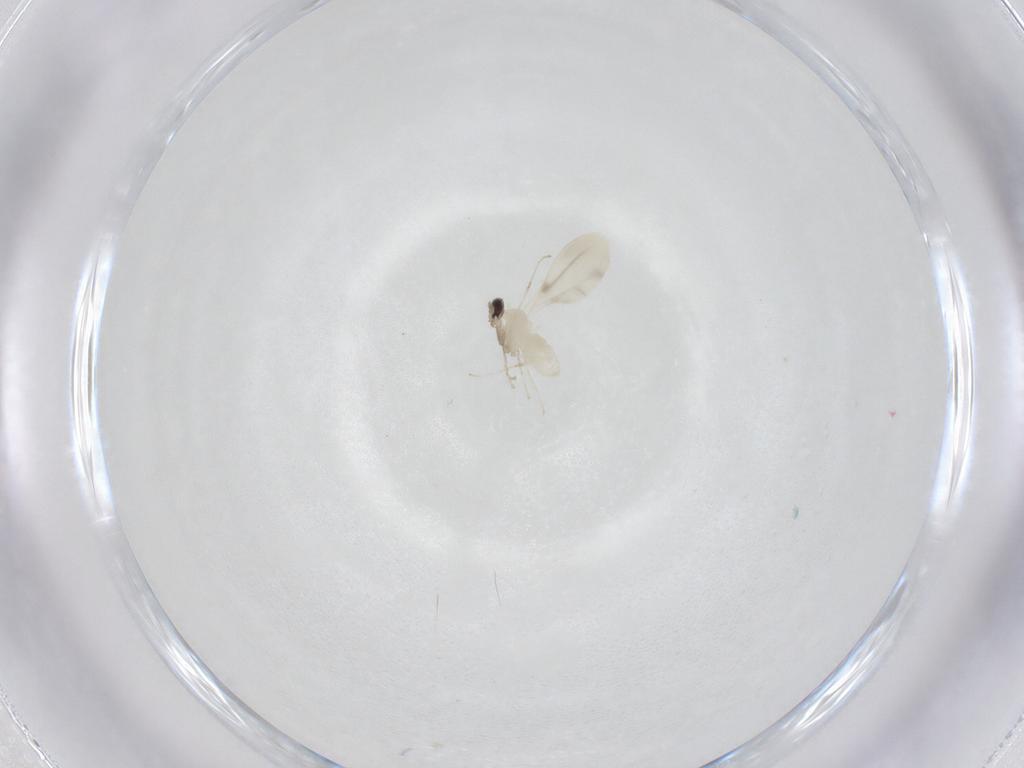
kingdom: Animalia
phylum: Arthropoda
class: Insecta
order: Diptera
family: Cecidomyiidae
